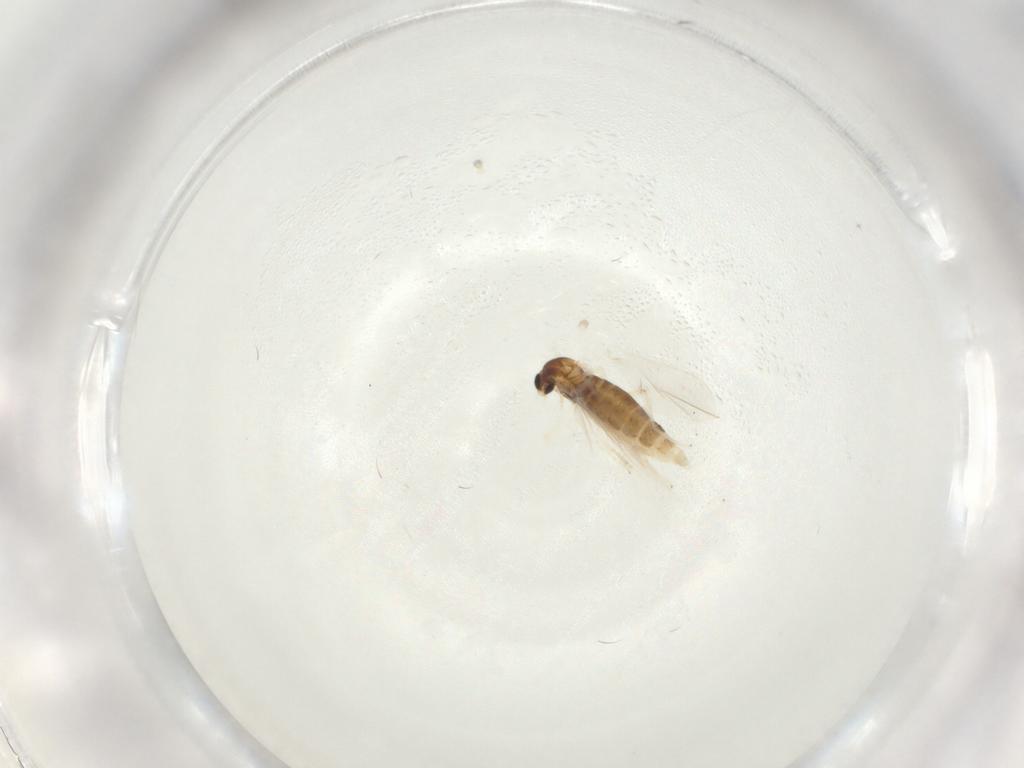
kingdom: Animalia
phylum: Arthropoda
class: Insecta
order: Diptera
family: Cecidomyiidae
